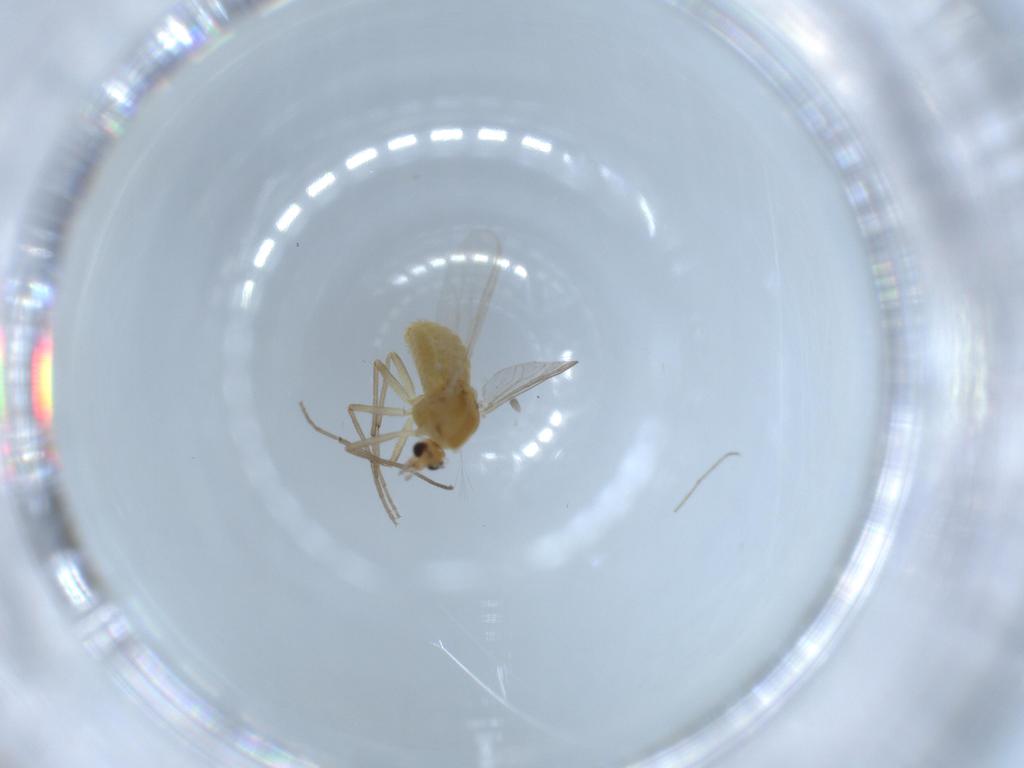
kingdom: Animalia
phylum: Arthropoda
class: Insecta
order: Diptera
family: Chironomidae
